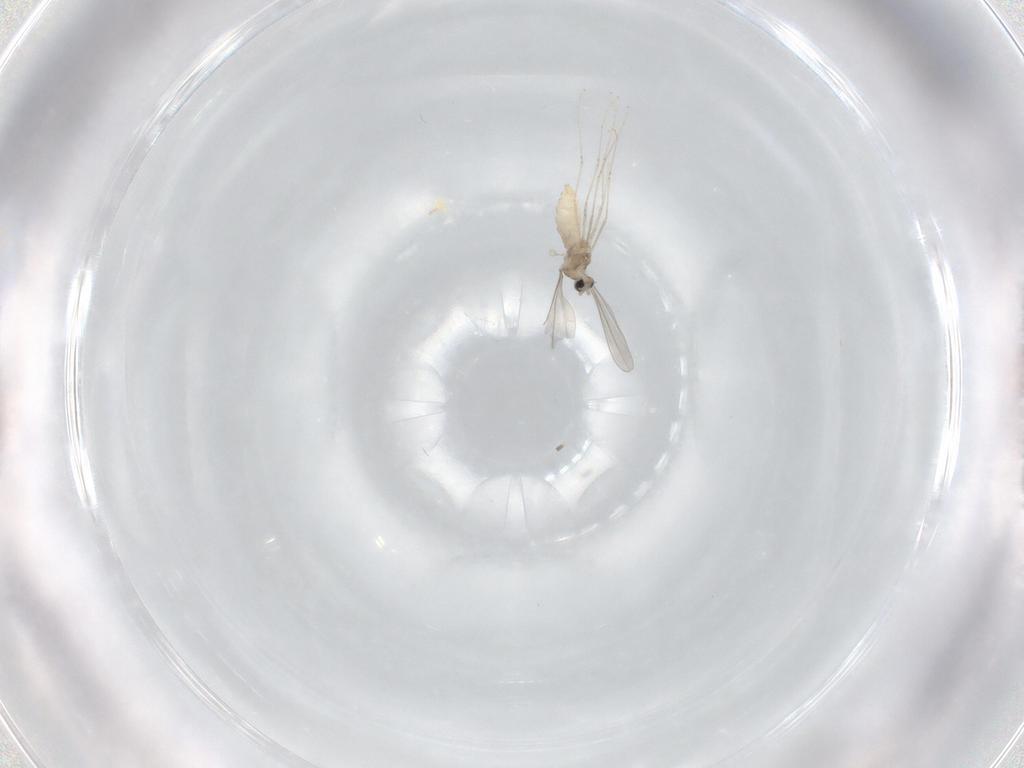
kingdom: Animalia
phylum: Arthropoda
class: Insecta
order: Diptera
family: Cecidomyiidae
